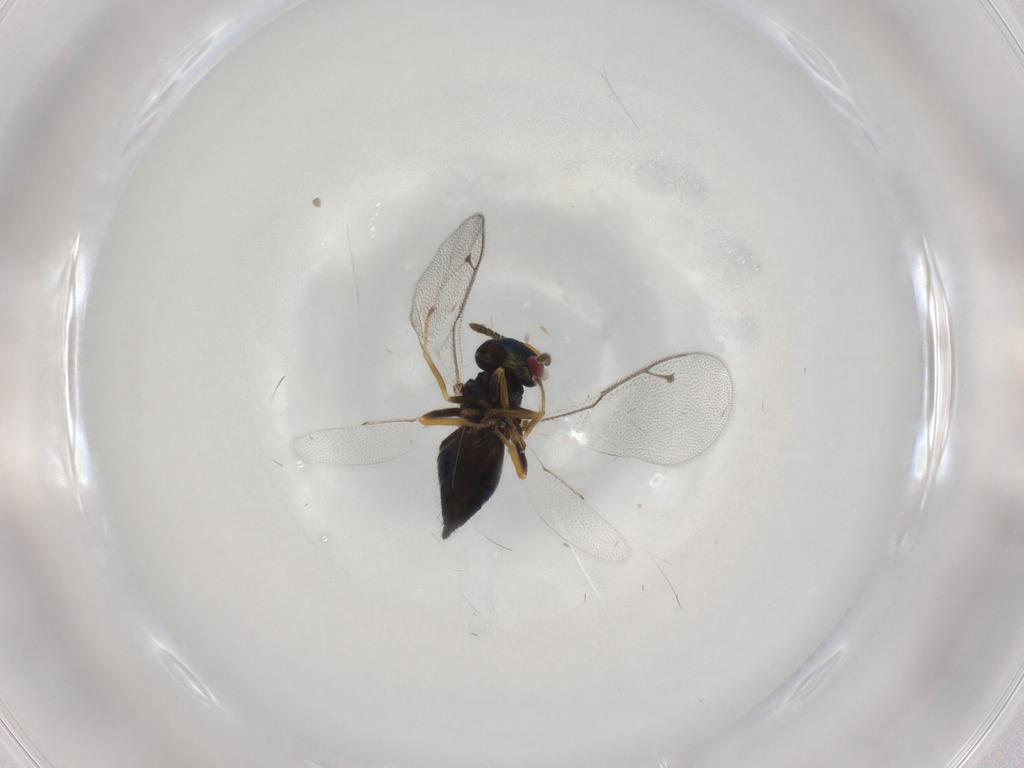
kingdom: Animalia
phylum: Arthropoda
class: Insecta
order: Hymenoptera
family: Pteromalidae
